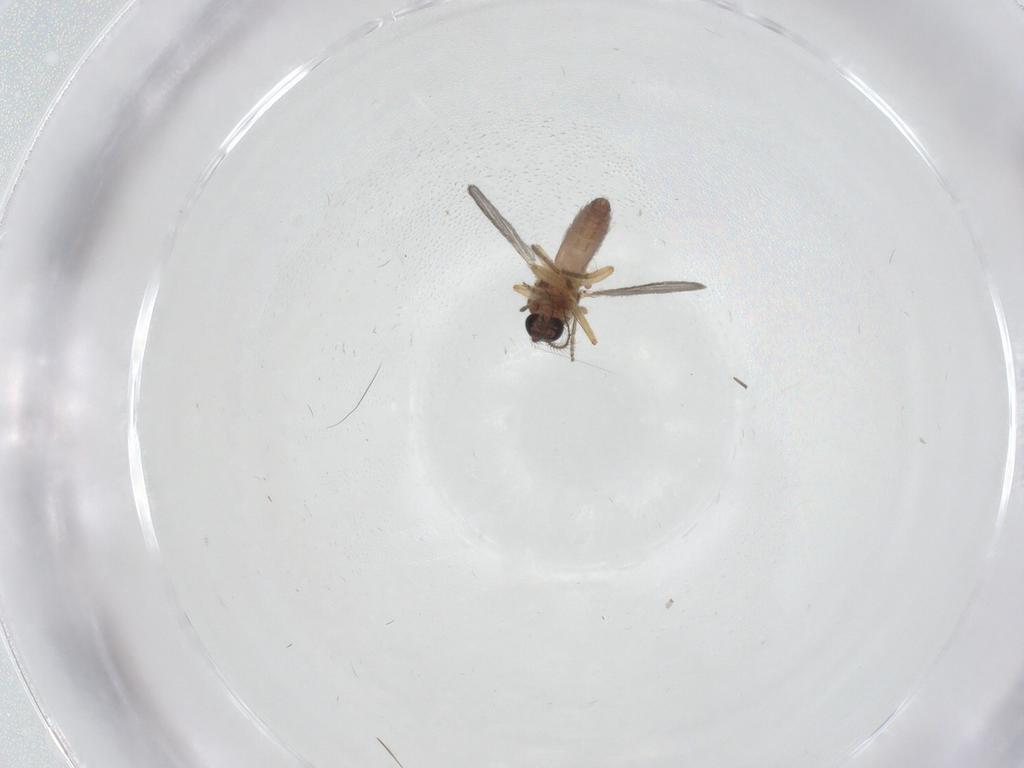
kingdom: Animalia
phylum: Arthropoda
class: Insecta
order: Diptera
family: Ceratopogonidae
